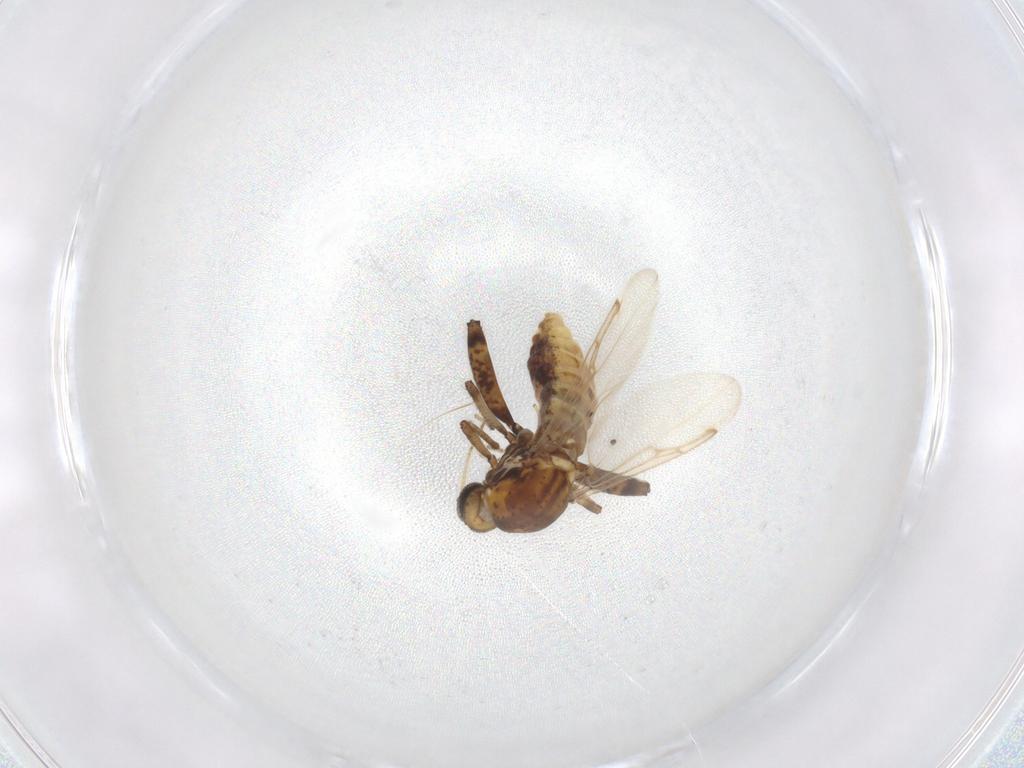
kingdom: Animalia
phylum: Arthropoda
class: Insecta
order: Diptera
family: Ceratopogonidae
